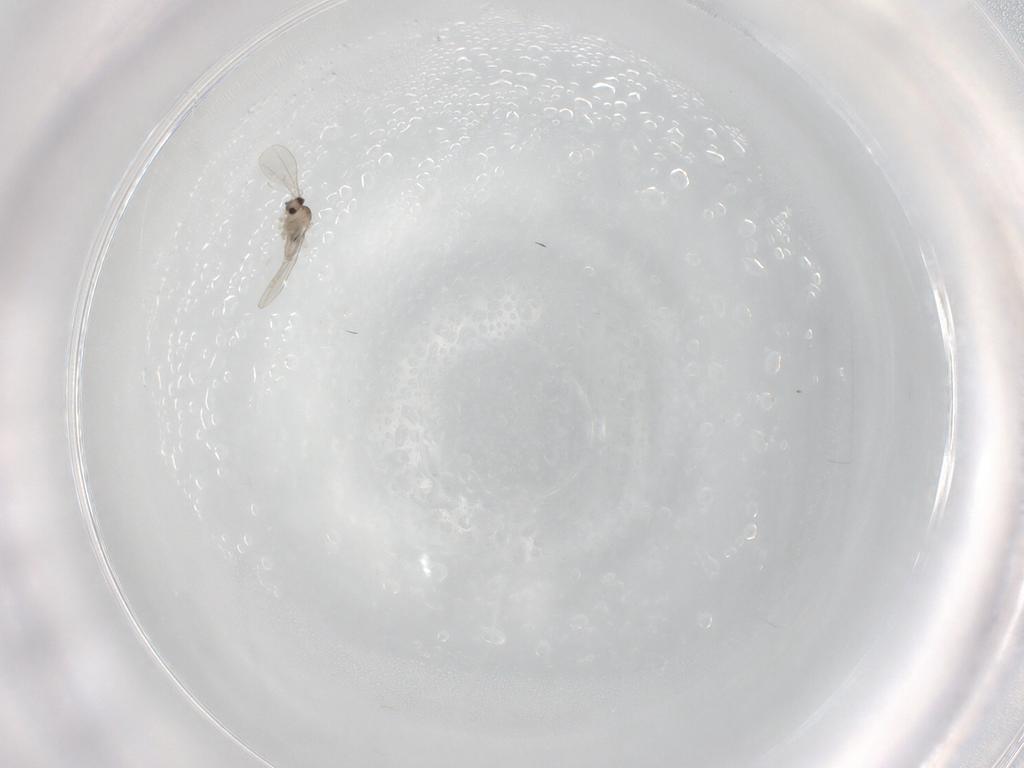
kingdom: Animalia
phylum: Arthropoda
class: Insecta
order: Diptera
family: Cecidomyiidae
